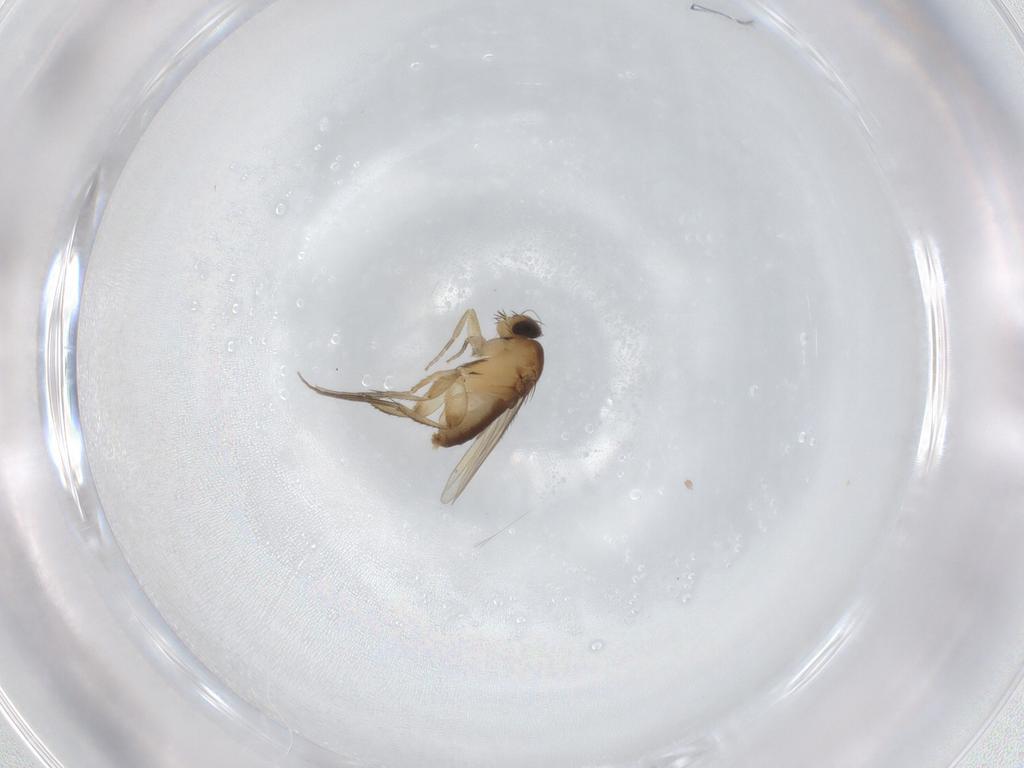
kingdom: Animalia
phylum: Arthropoda
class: Insecta
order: Diptera
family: Phoridae
